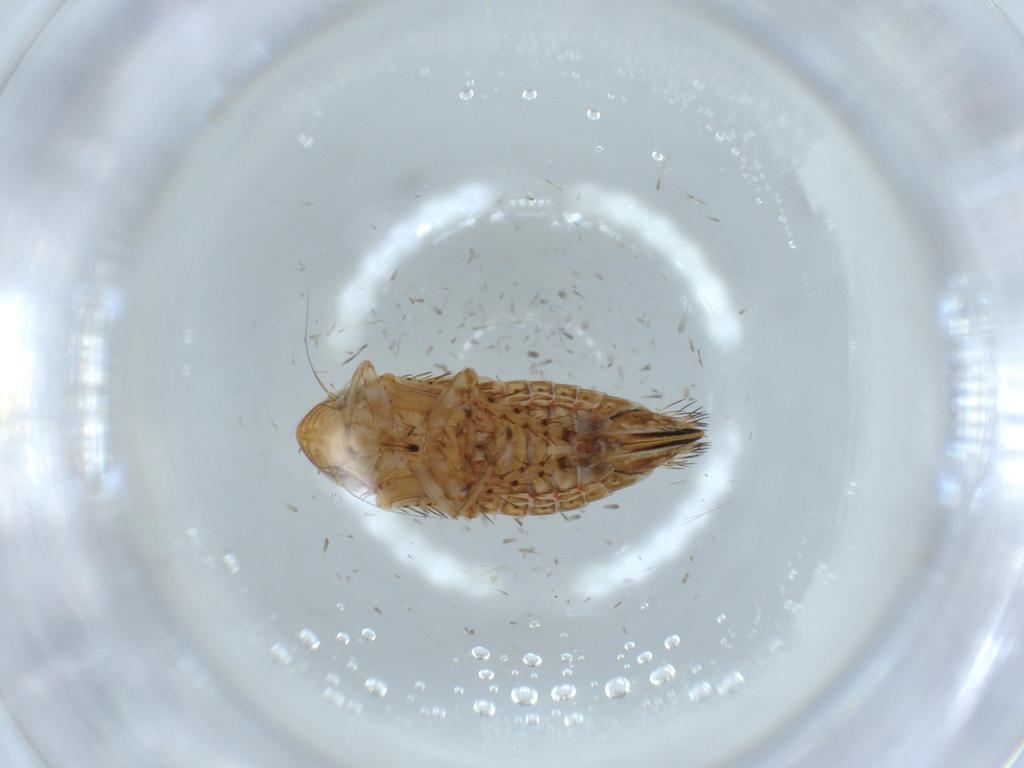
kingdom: Animalia
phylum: Arthropoda
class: Insecta
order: Hemiptera
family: Cicadellidae
